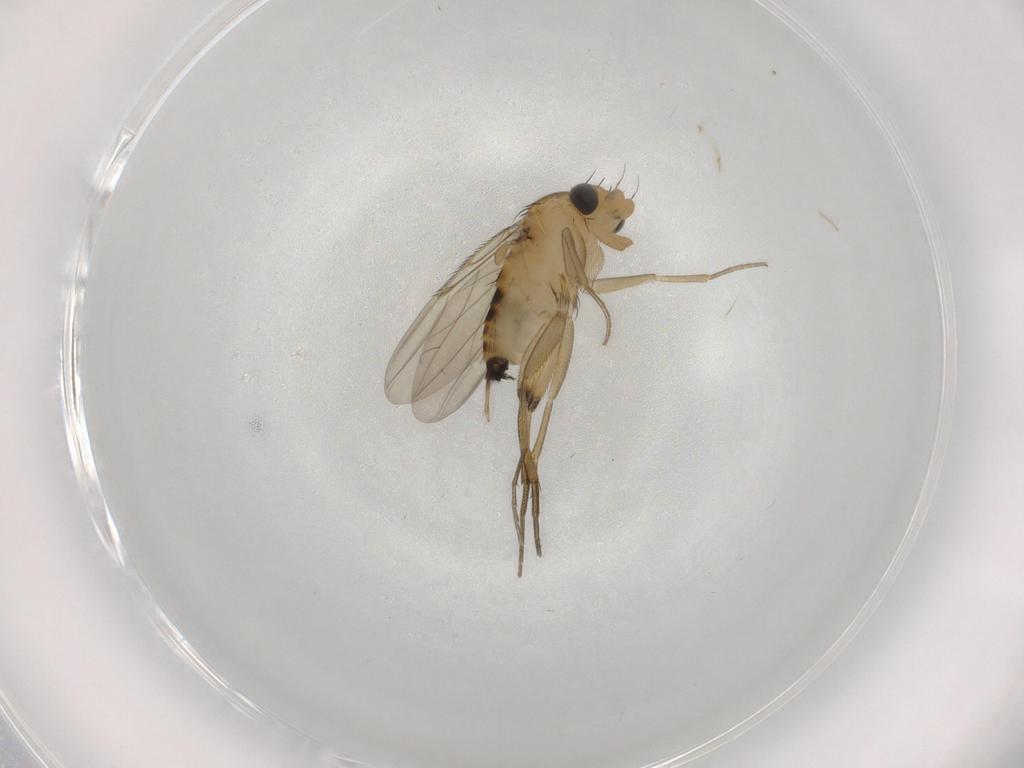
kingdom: Animalia
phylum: Arthropoda
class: Insecta
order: Diptera
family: Phoridae
